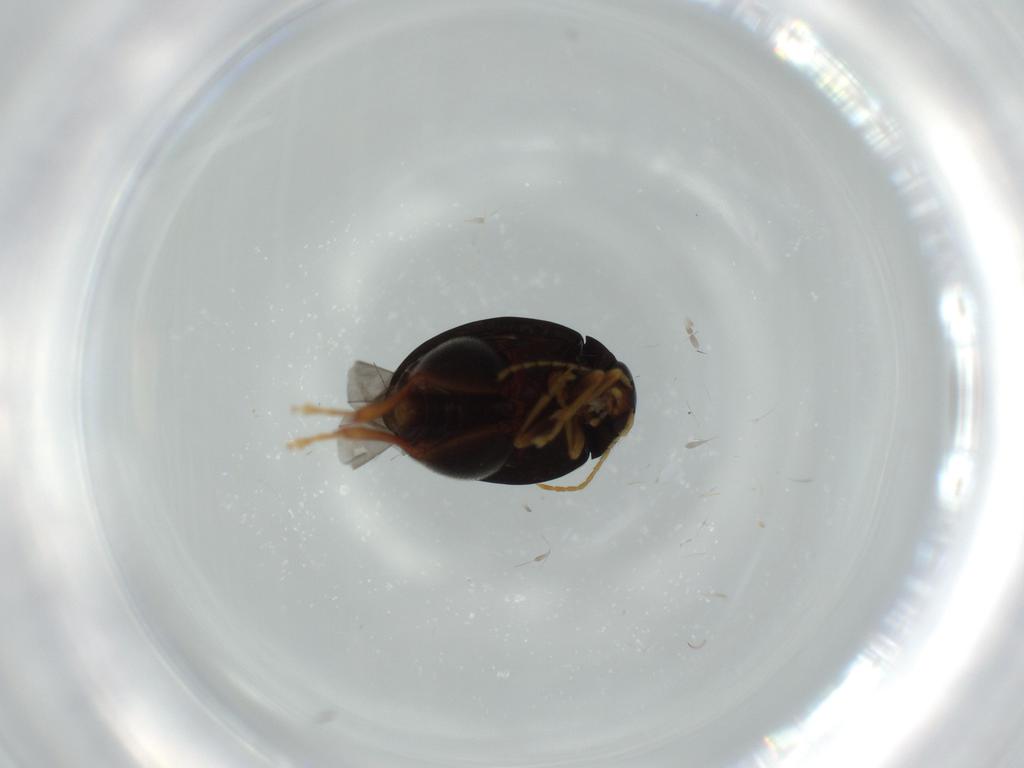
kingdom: Animalia
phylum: Arthropoda
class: Insecta
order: Coleoptera
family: Chrysomelidae
